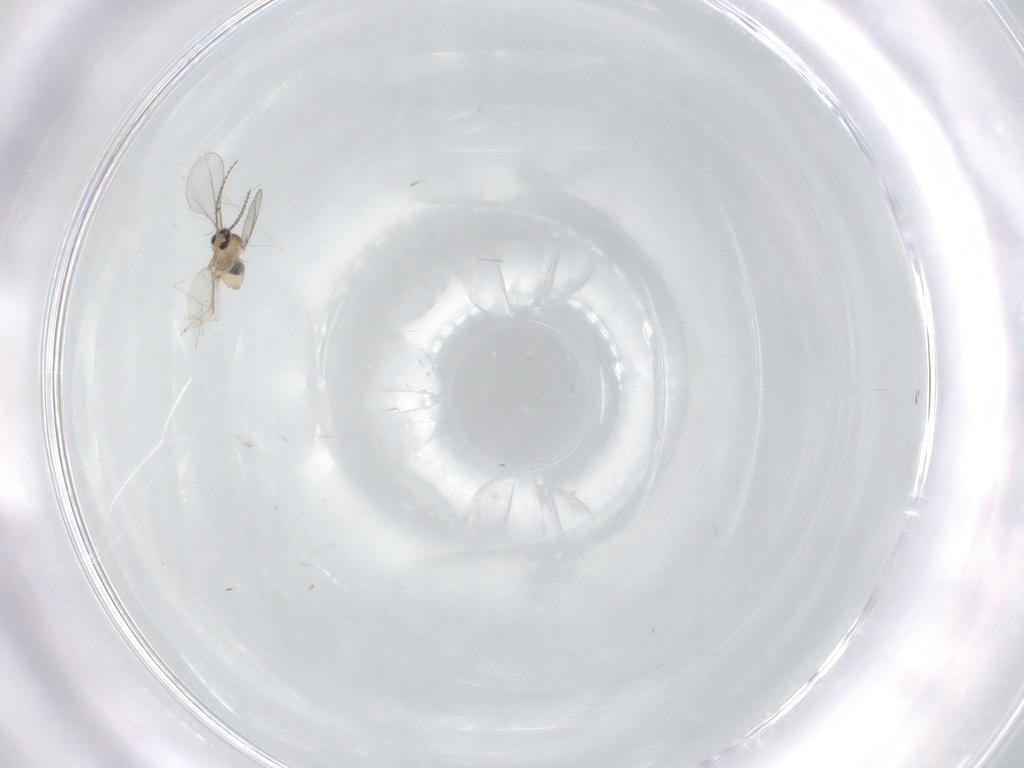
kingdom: Animalia
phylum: Arthropoda
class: Insecta
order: Diptera
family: Cecidomyiidae
